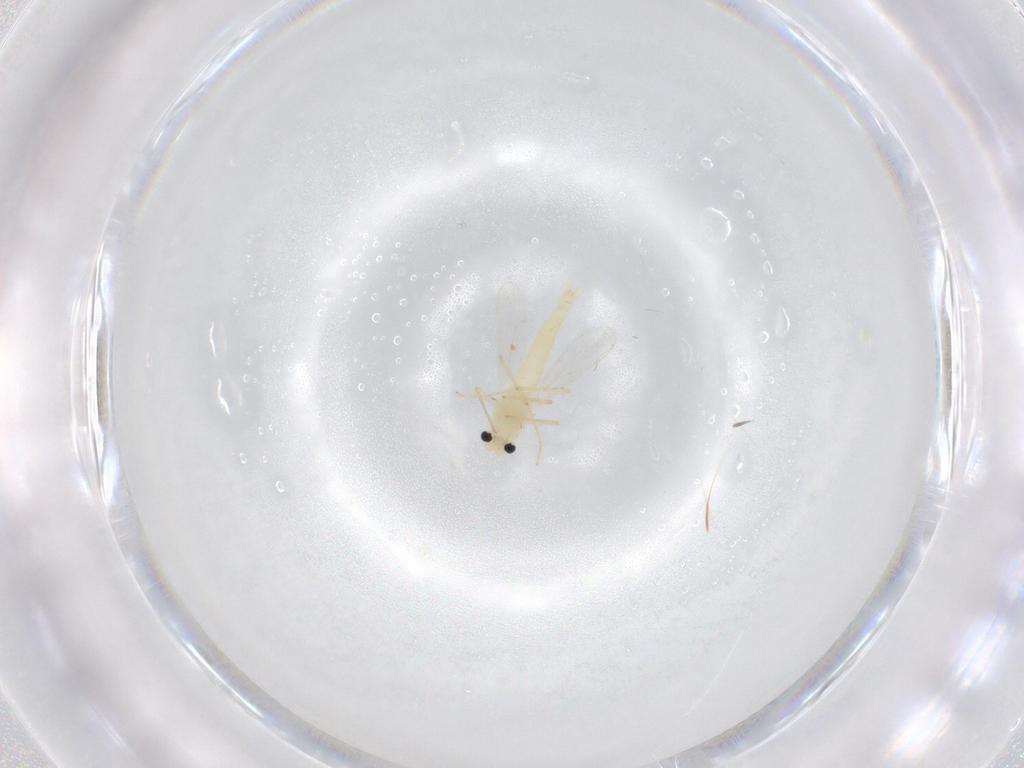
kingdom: Animalia
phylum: Arthropoda
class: Insecta
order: Diptera
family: Chironomidae
